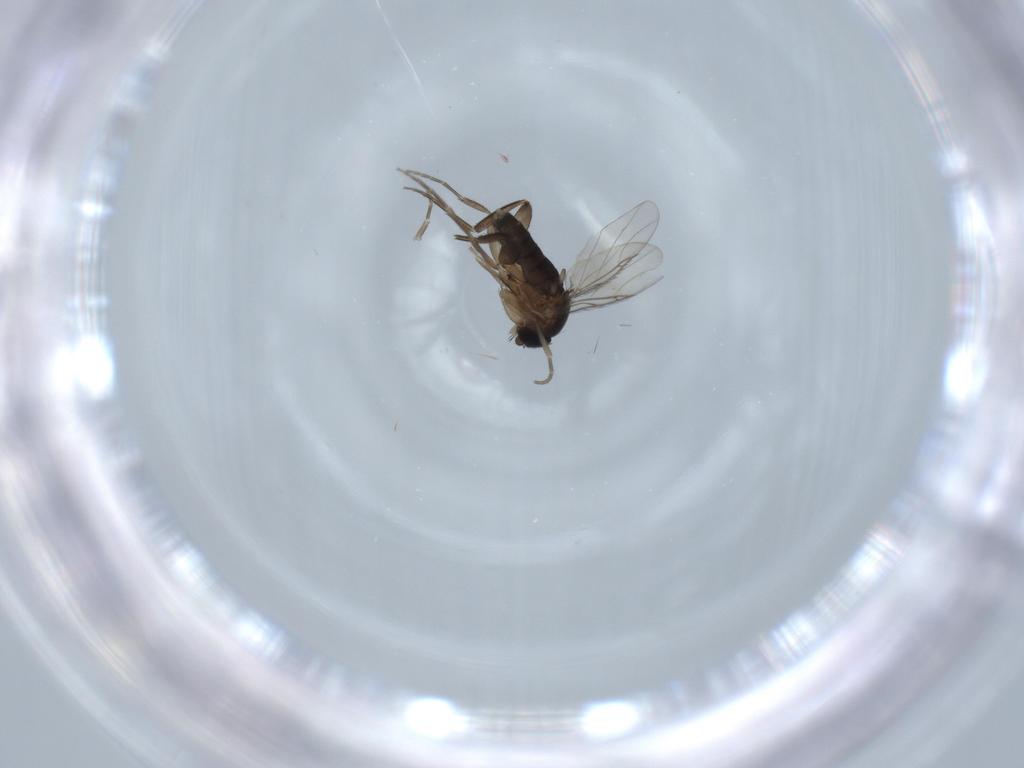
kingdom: Animalia
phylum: Arthropoda
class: Insecta
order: Diptera
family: Phoridae
